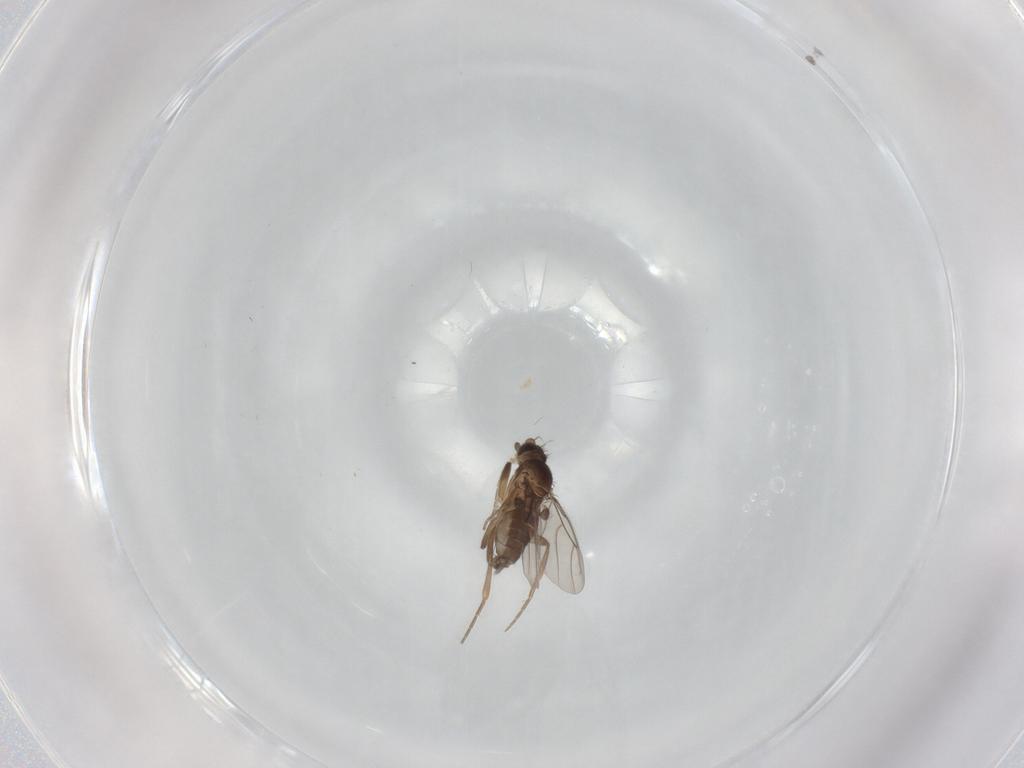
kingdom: Animalia
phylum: Arthropoda
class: Insecta
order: Diptera
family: Phoridae
